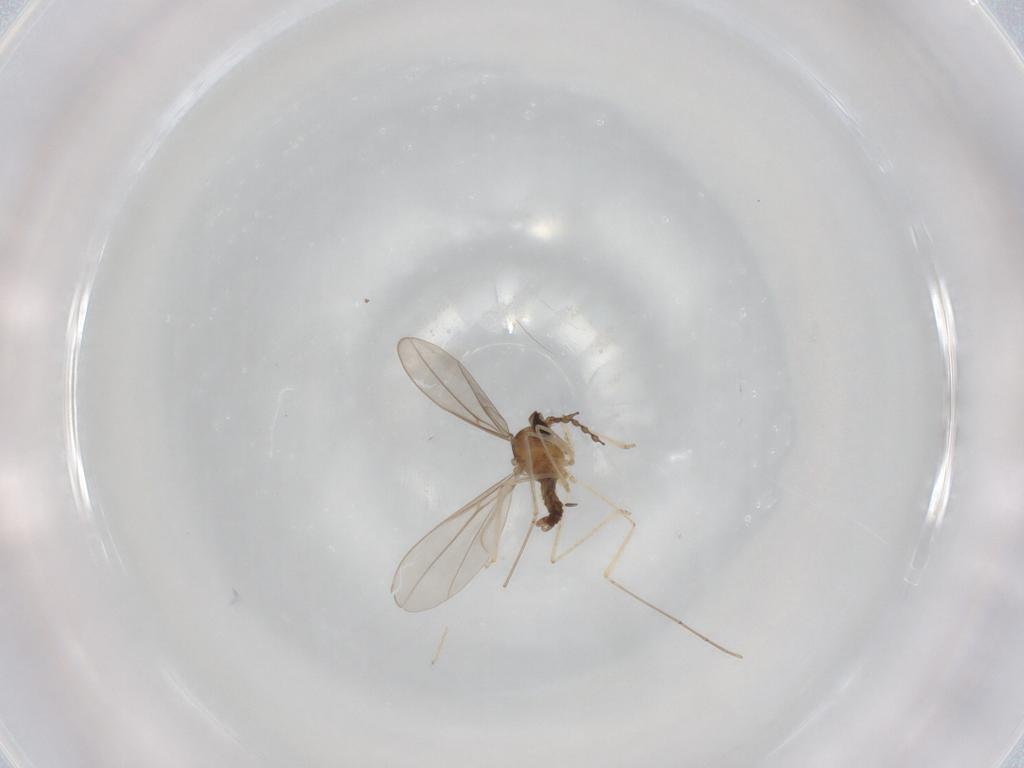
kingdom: Animalia
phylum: Arthropoda
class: Insecta
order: Diptera
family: Cecidomyiidae
